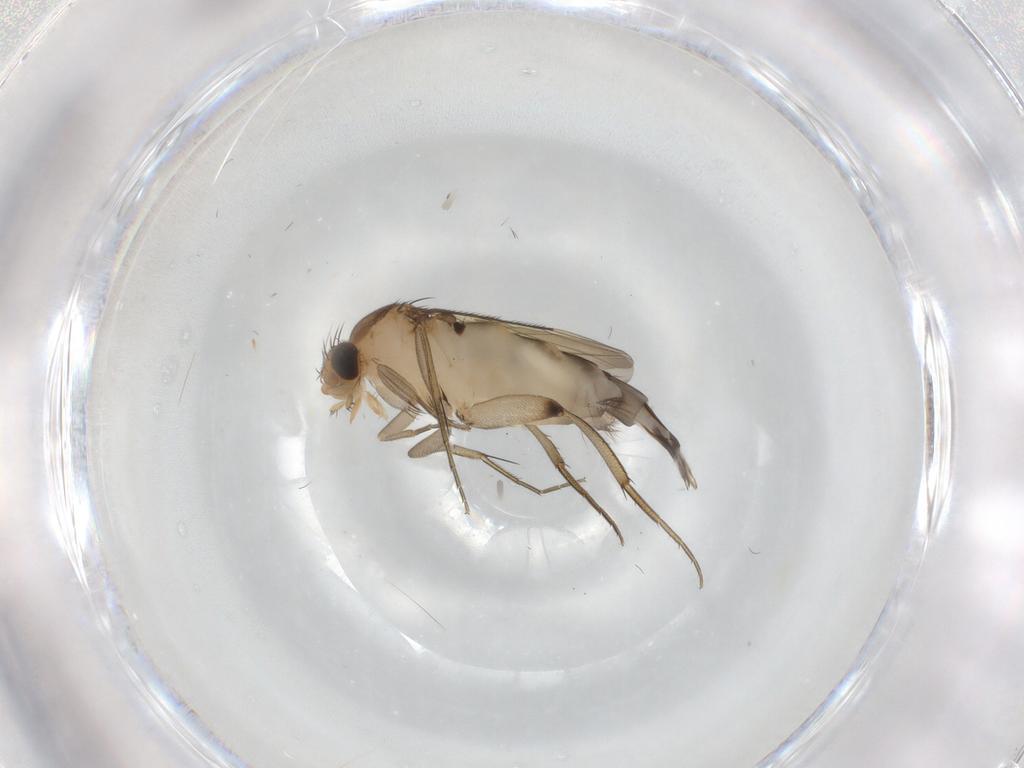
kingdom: Animalia
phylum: Arthropoda
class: Insecta
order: Diptera
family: Phoridae
